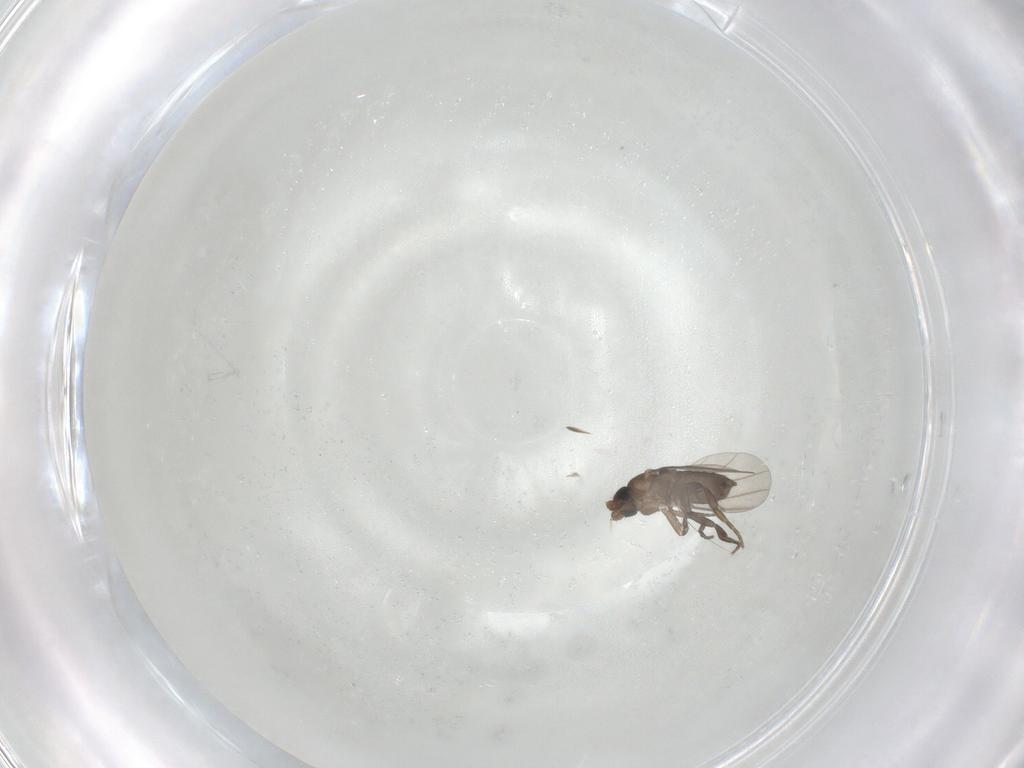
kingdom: Animalia
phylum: Arthropoda
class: Insecta
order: Diptera
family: Phoridae
